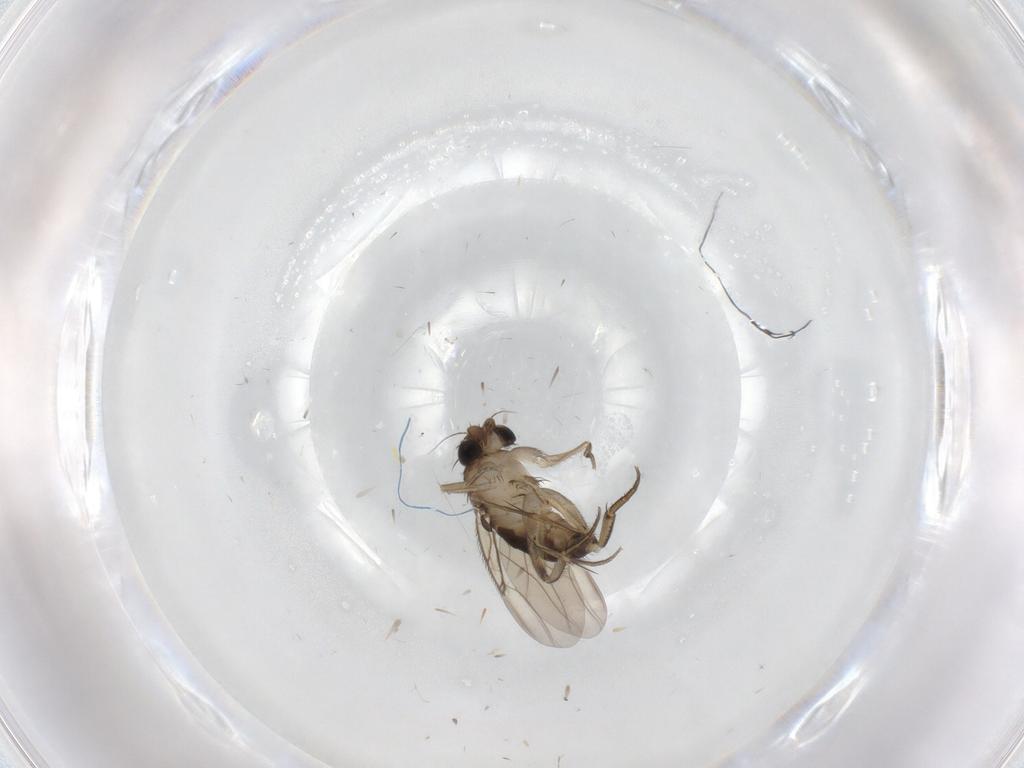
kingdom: Animalia
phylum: Arthropoda
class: Insecta
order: Diptera
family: Phoridae
